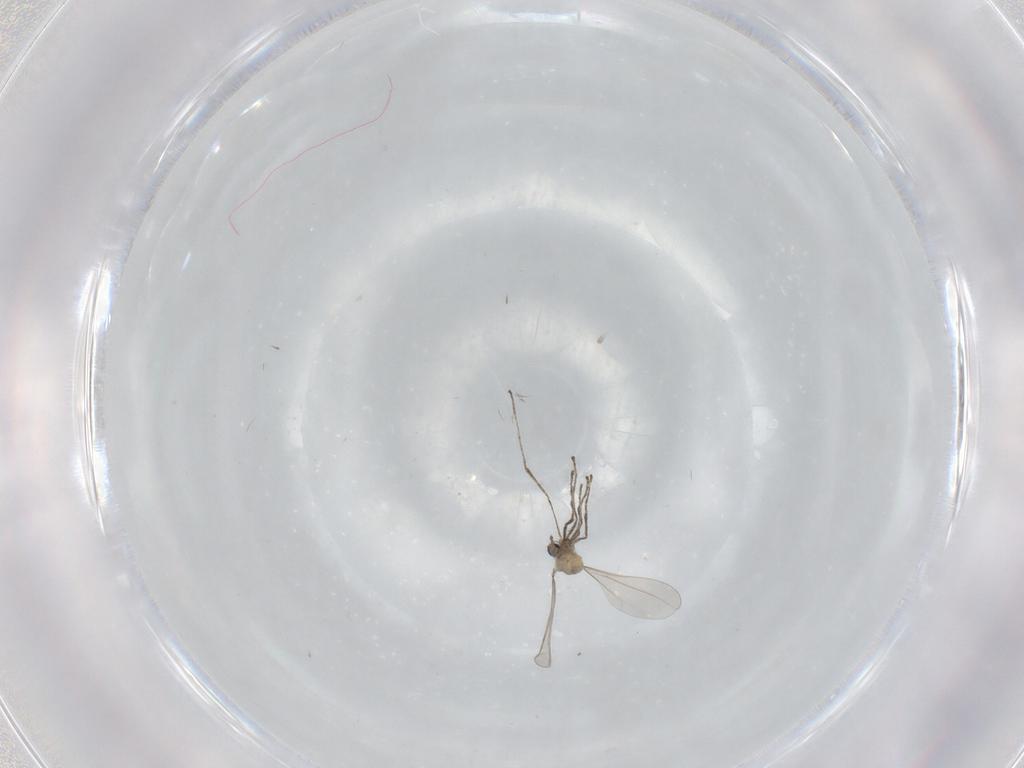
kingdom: Animalia
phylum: Arthropoda
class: Insecta
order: Diptera
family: Cecidomyiidae
